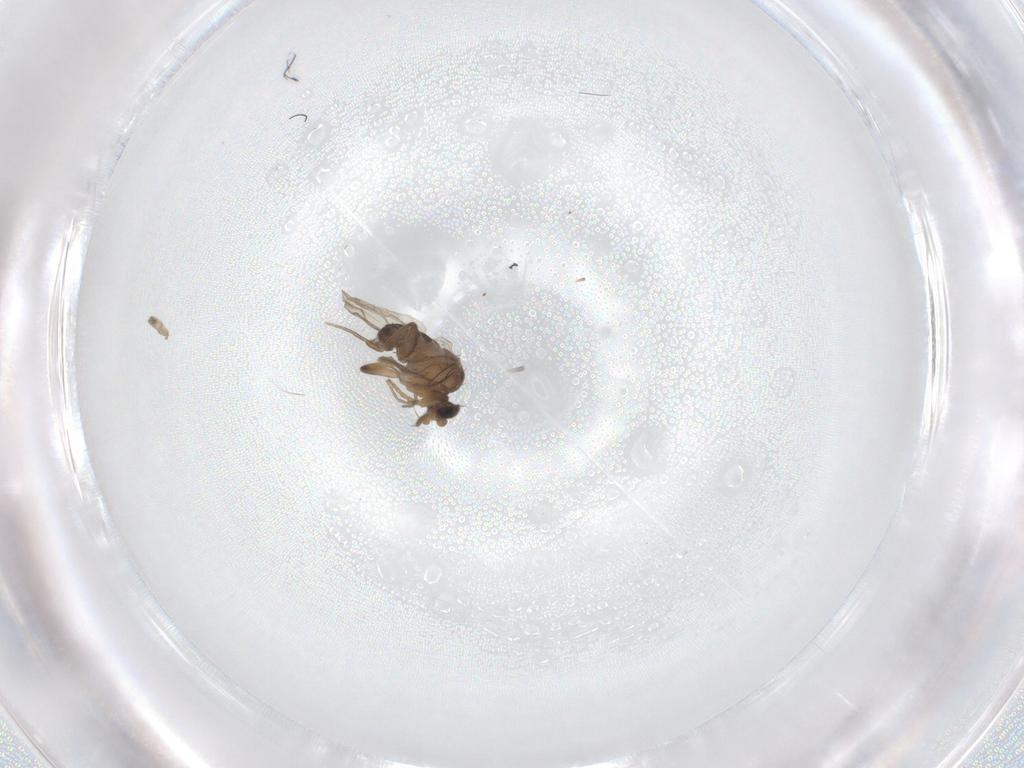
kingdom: Animalia
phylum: Arthropoda
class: Insecta
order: Diptera
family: Phoridae
